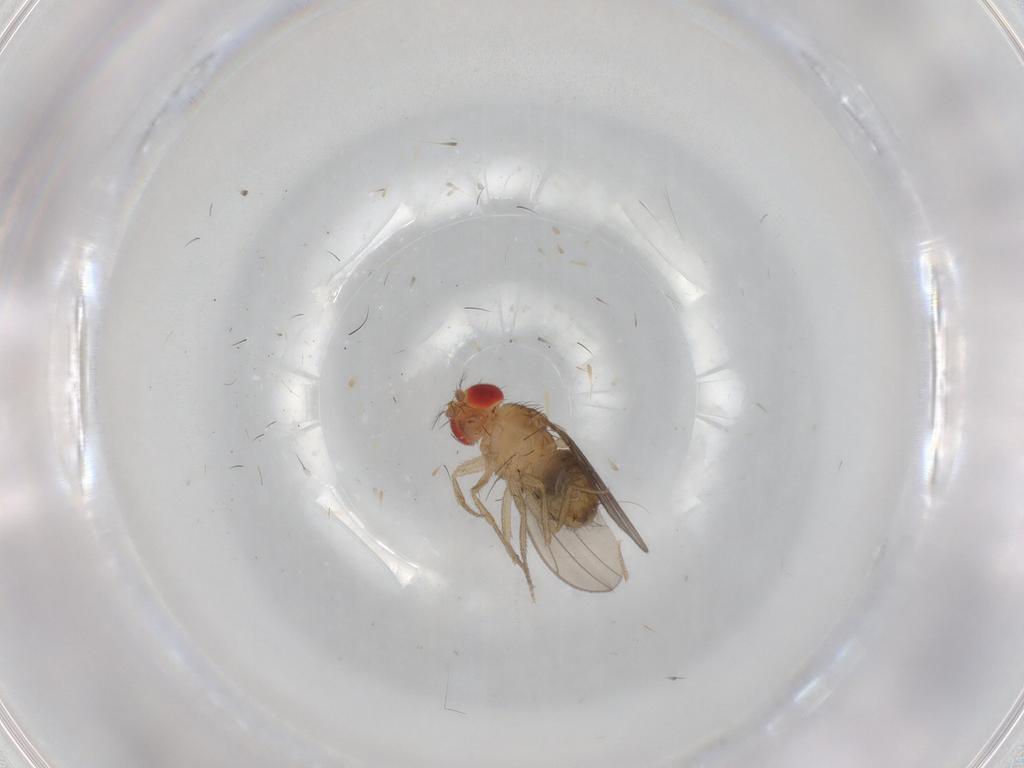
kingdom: Animalia
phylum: Arthropoda
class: Insecta
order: Diptera
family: Drosophilidae
